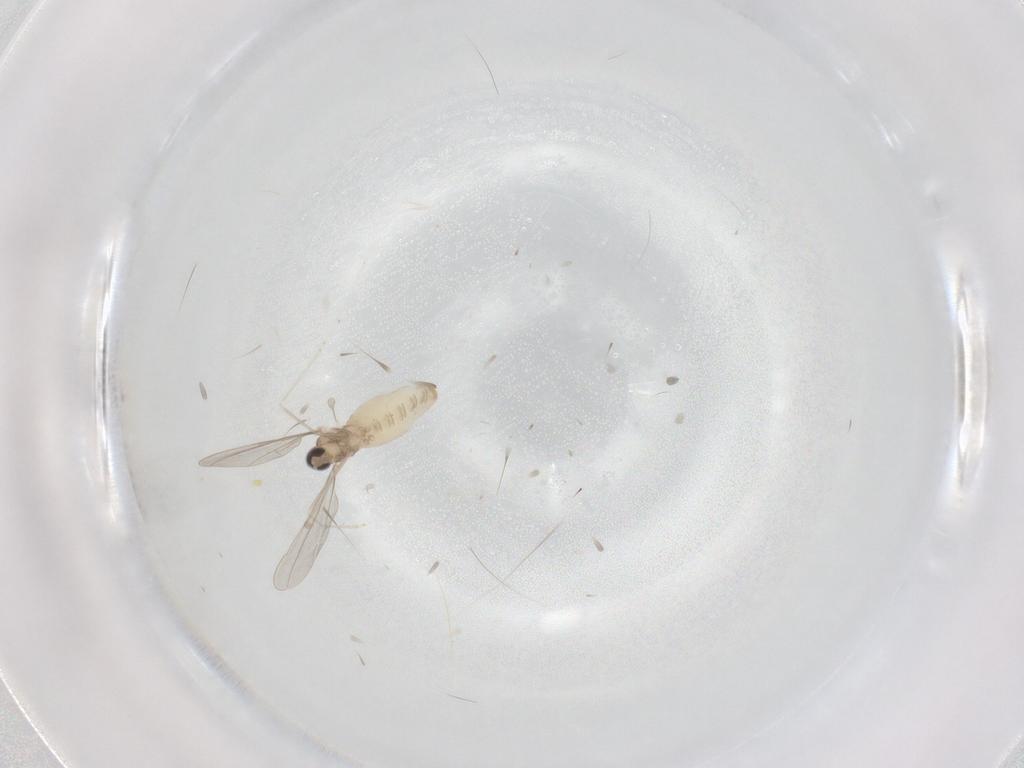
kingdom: Animalia
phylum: Arthropoda
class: Insecta
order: Diptera
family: Cecidomyiidae
